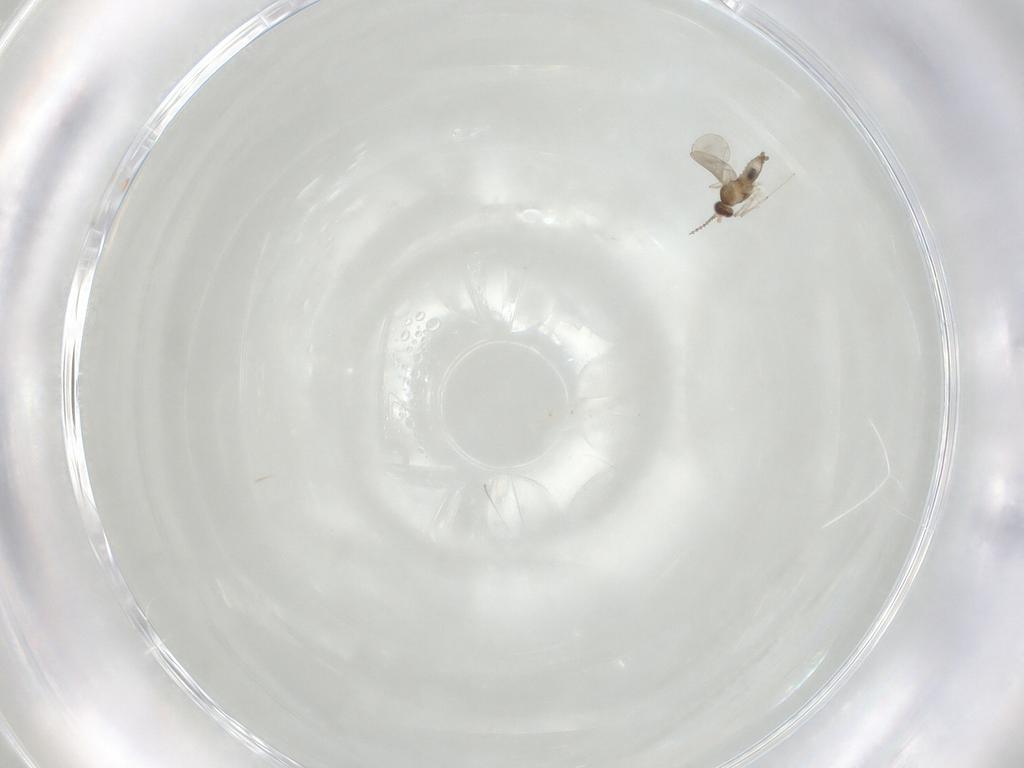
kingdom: Animalia
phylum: Arthropoda
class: Insecta
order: Diptera
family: Cecidomyiidae
